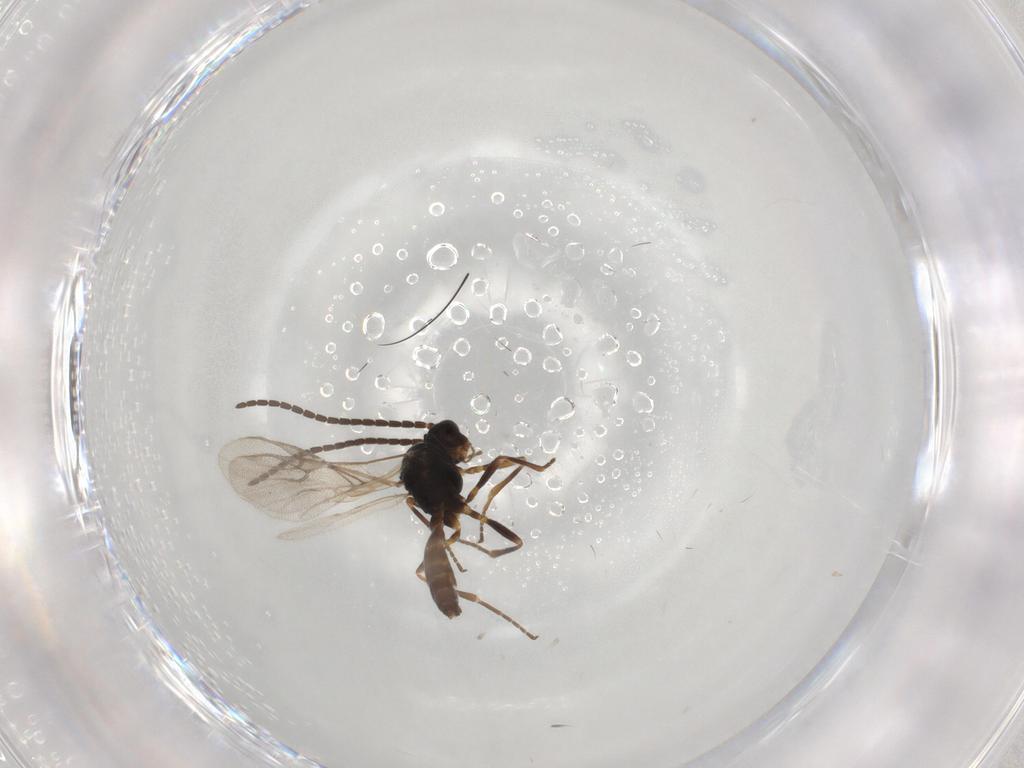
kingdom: Animalia
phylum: Arthropoda
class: Insecta
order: Hymenoptera
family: Braconidae
